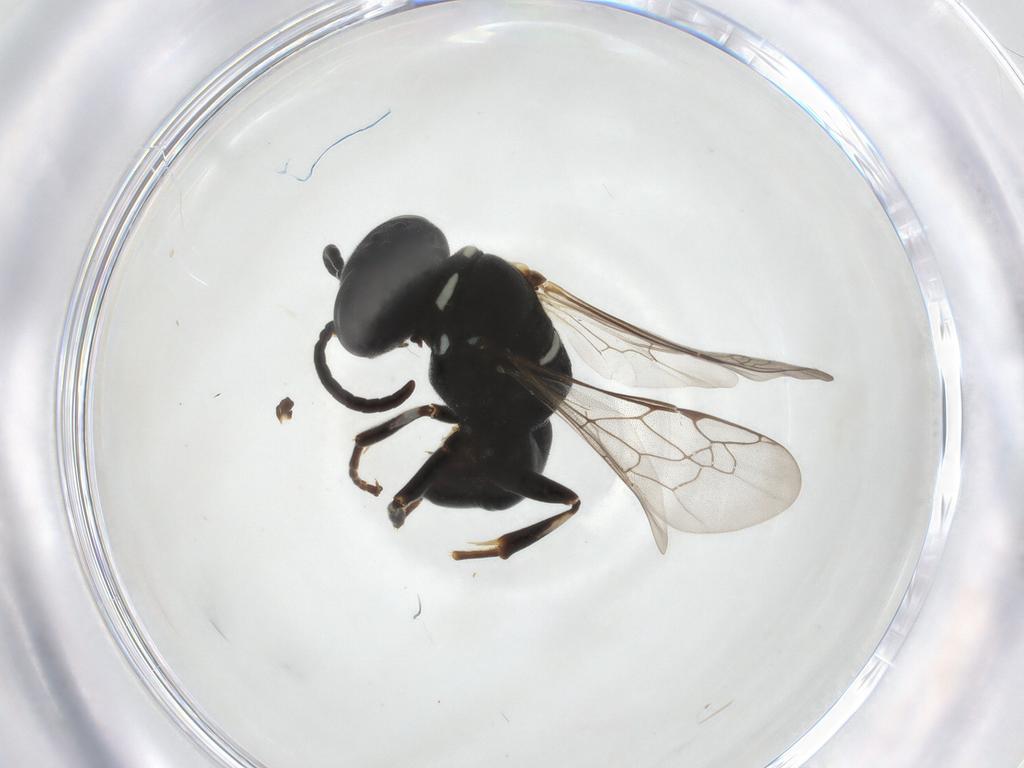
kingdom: Animalia
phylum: Arthropoda
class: Insecta
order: Hymenoptera
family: Crabronidae
